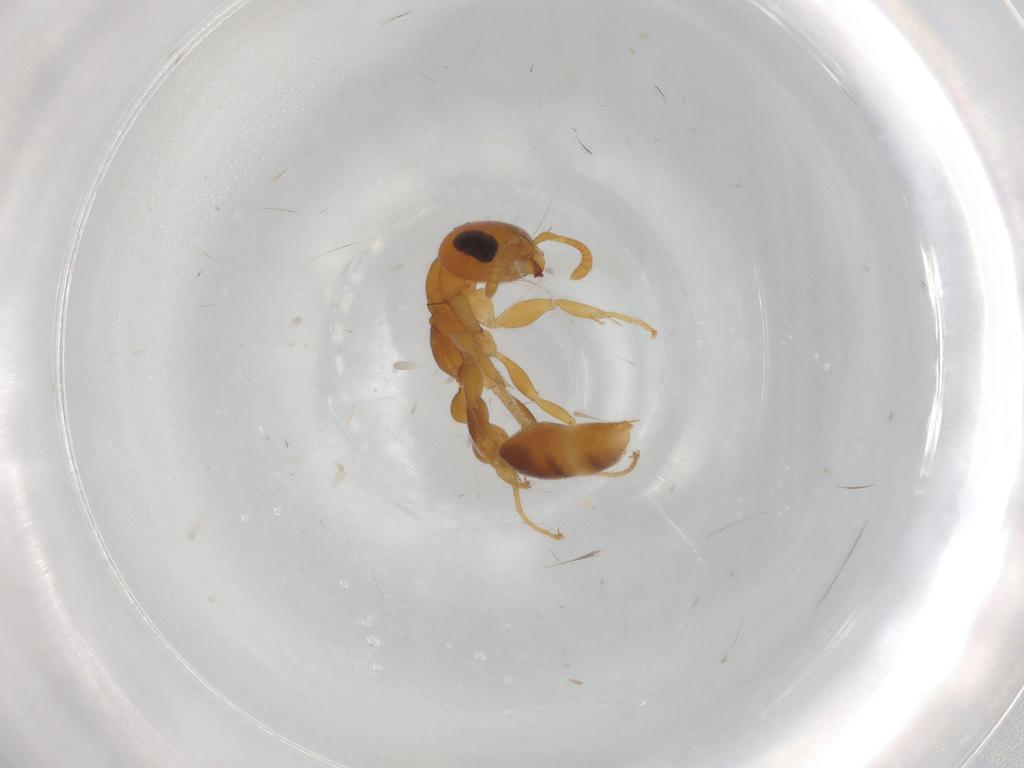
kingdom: Animalia
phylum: Arthropoda
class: Insecta
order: Hymenoptera
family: Formicidae
